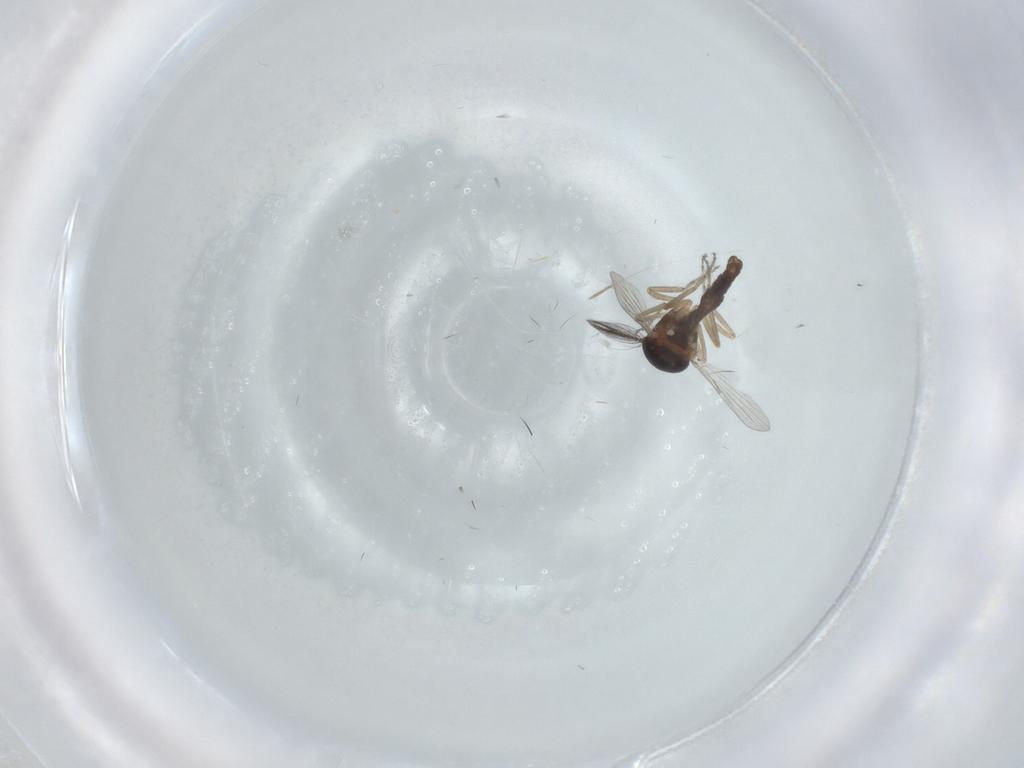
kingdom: Animalia
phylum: Arthropoda
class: Insecta
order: Diptera
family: Ceratopogonidae
